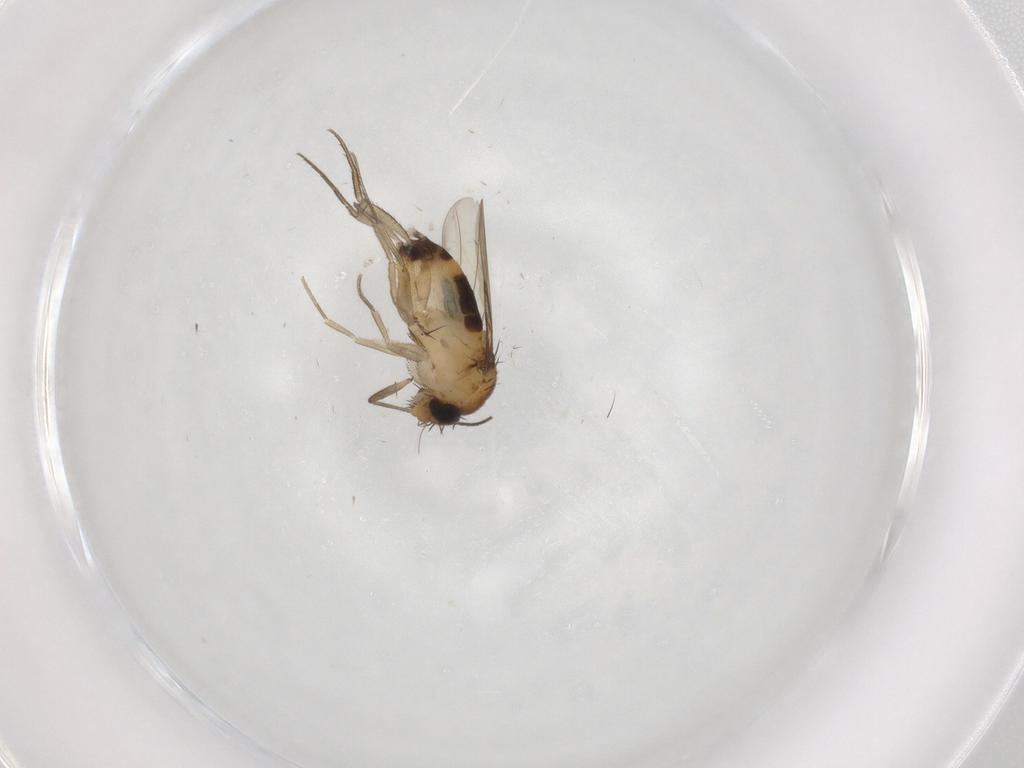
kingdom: Animalia
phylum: Arthropoda
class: Insecta
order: Diptera
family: Phoridae
